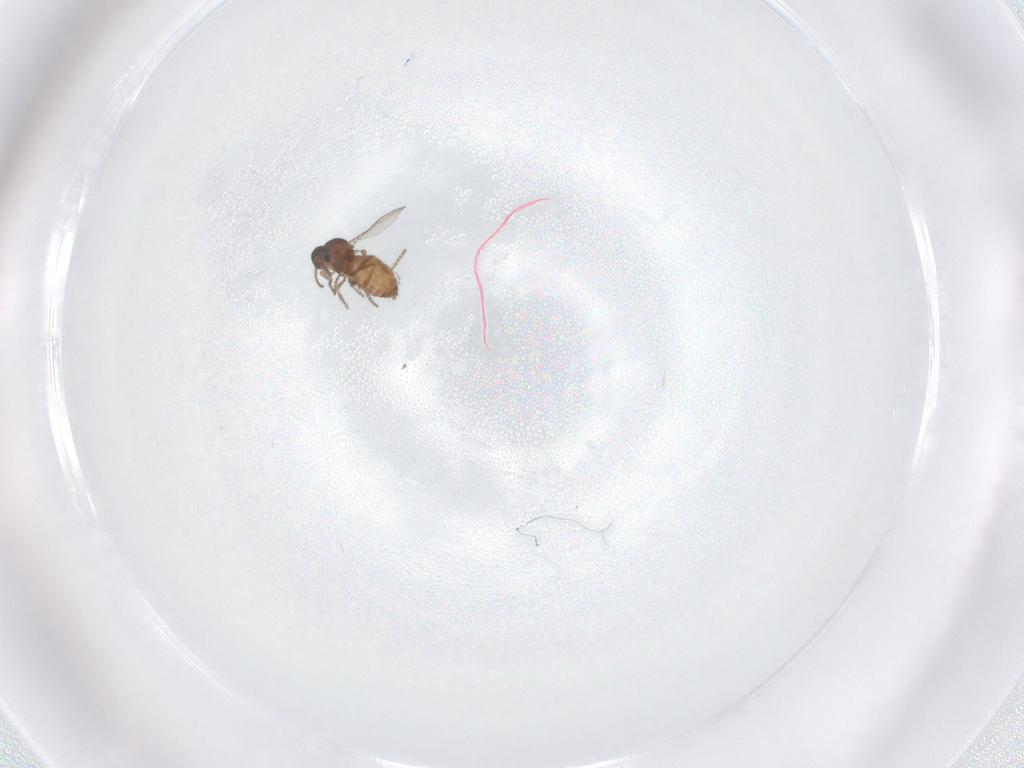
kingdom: Animalia
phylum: Arthropoda
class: Insecta
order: Diptera
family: Ceratopogonidae
